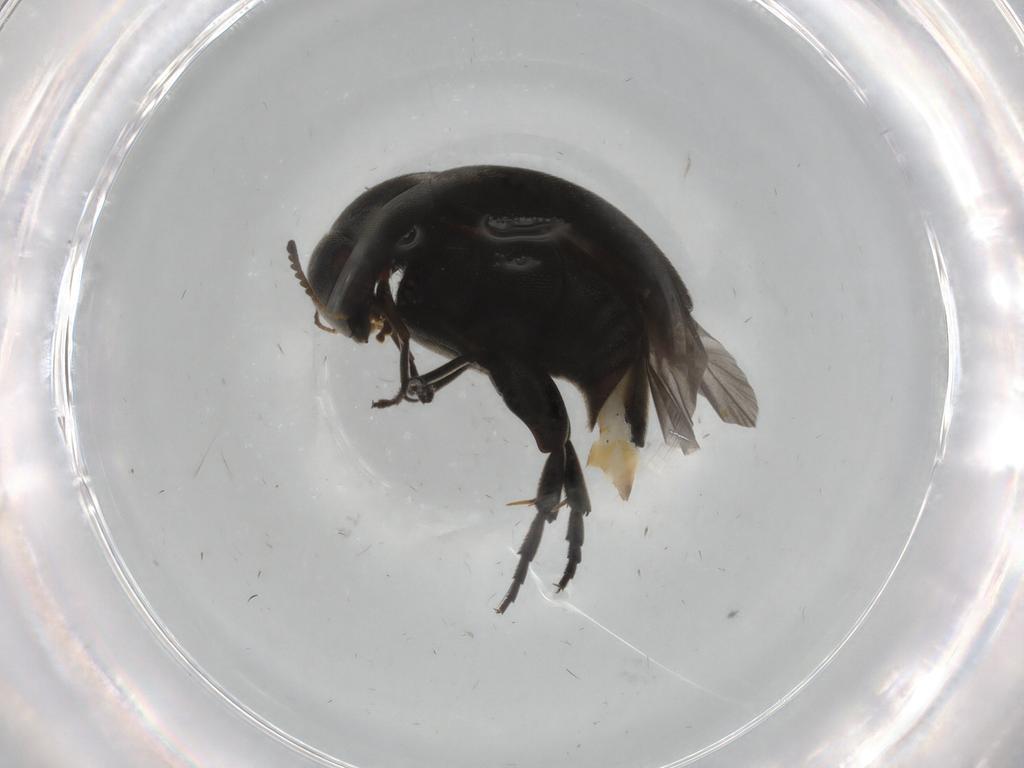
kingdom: Animalia
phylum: Arthropoda
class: Insecta
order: Coleoptera
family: Mordellidae
